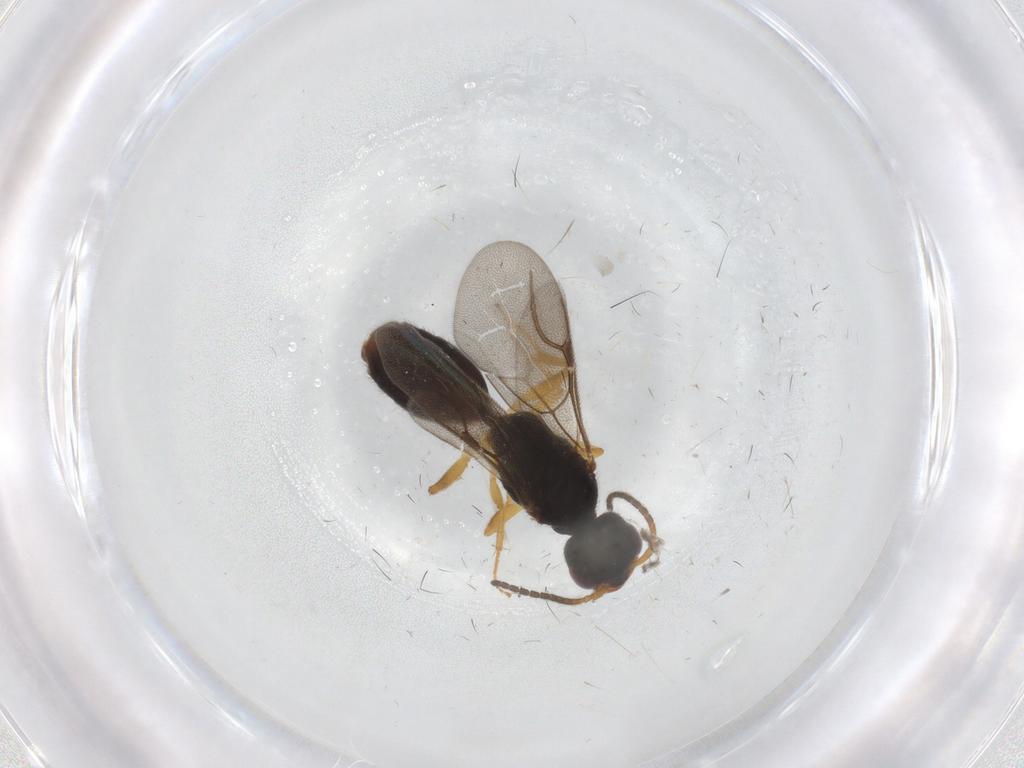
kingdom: Animalia
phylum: Arthropoda
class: Insecta
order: Hymenoptera
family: Bethylidae
